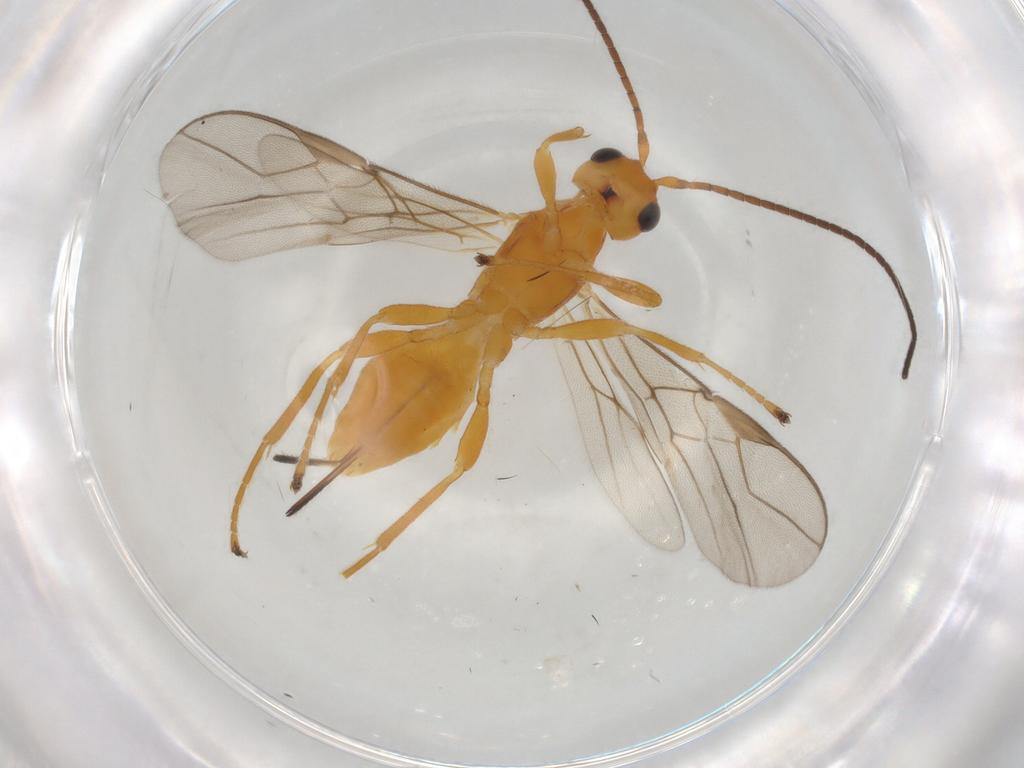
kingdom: Animalia
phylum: Arthropoda
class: Insecta
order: Hymenoptera
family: Braconidae
